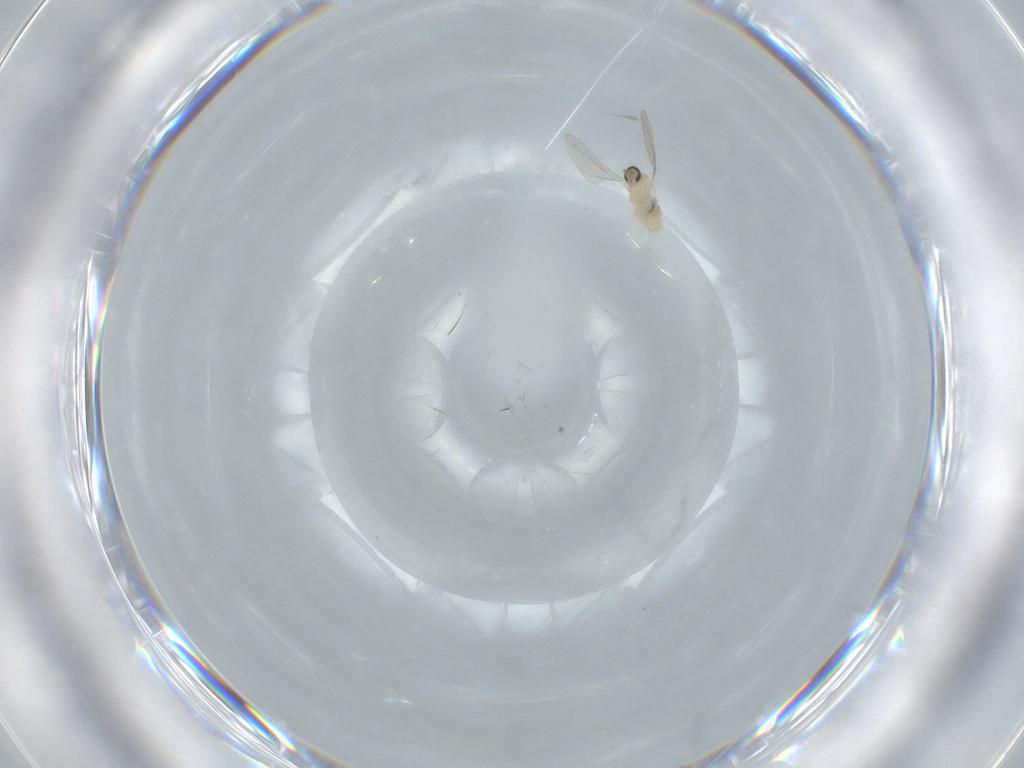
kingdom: Animalia
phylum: Arthropoda
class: Insecta
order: Diptera
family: Cecidomyiidae
